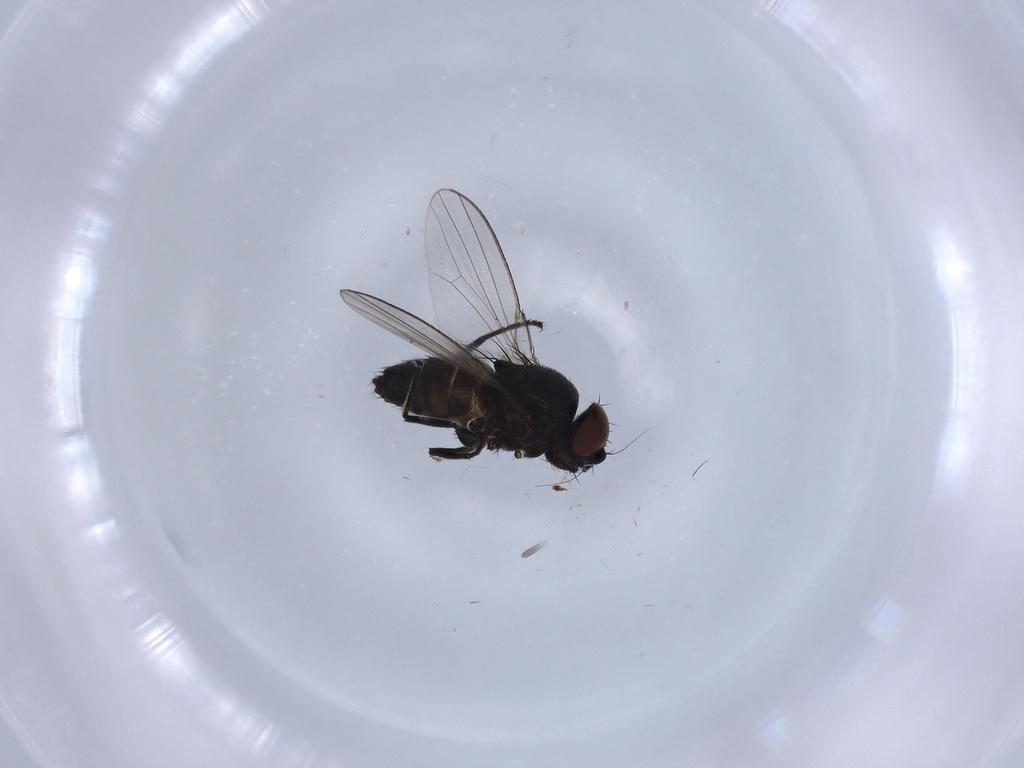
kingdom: Animalia
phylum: Arthropoda
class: Insecta
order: Diptera
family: Milichiidae
